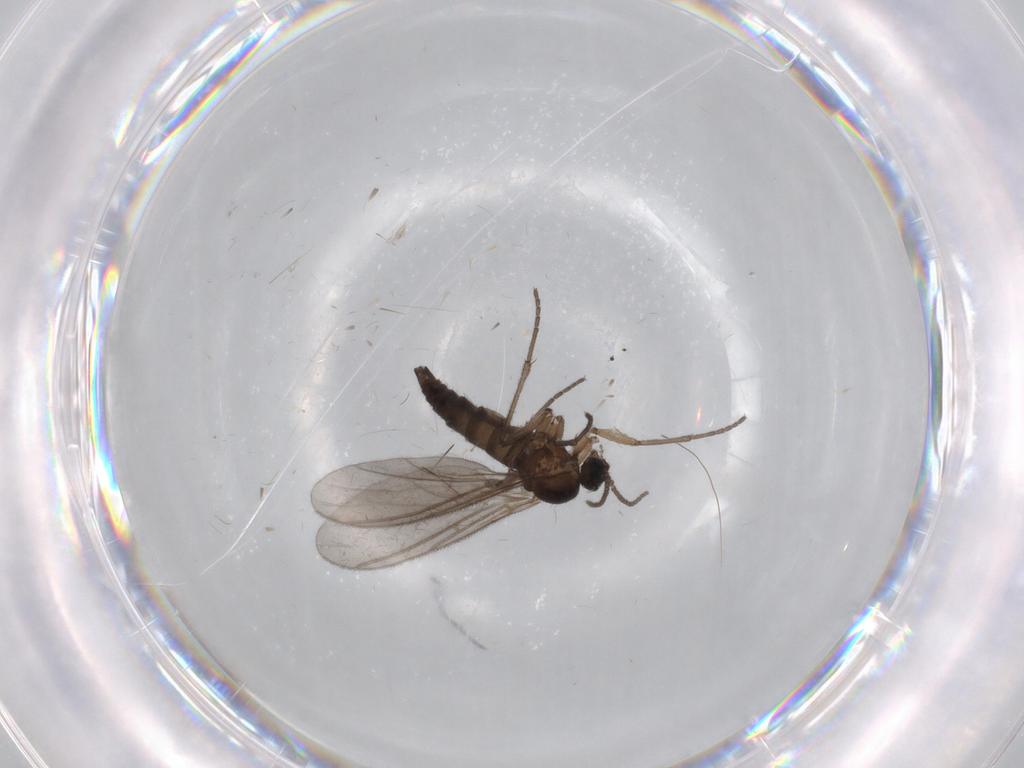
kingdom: Animalia
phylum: Arthropoda
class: Insecta
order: Diptera
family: Sciaridae
